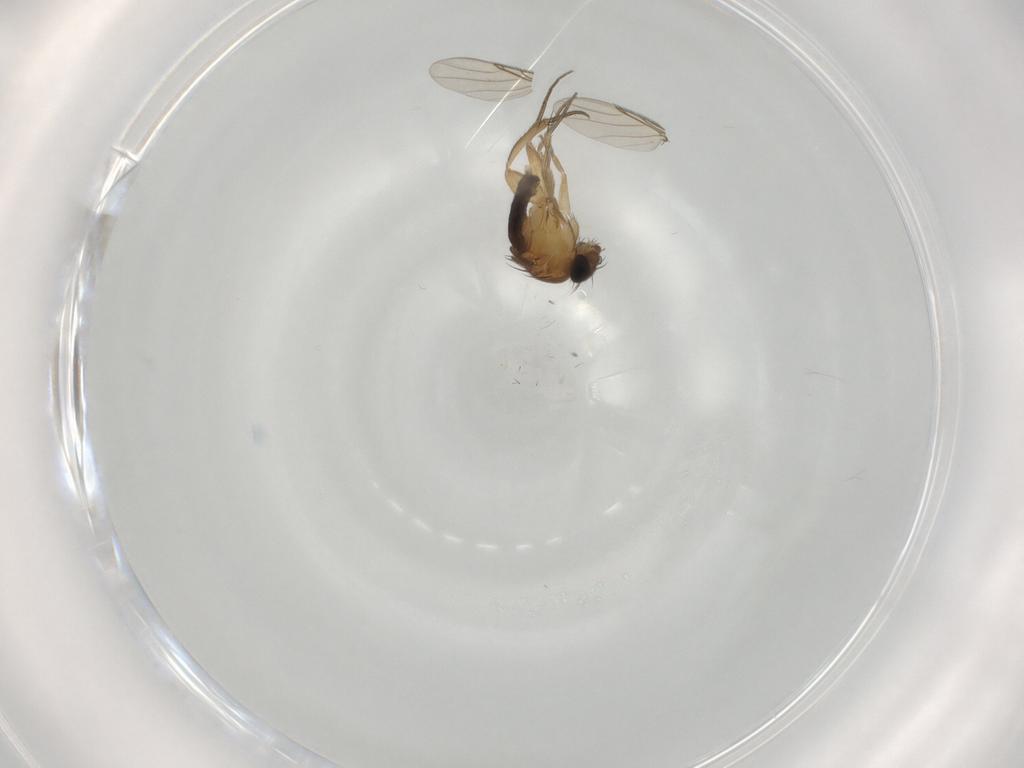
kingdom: Animalia
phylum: Arthropoda
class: Insecta
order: Diptera
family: Phoridae
